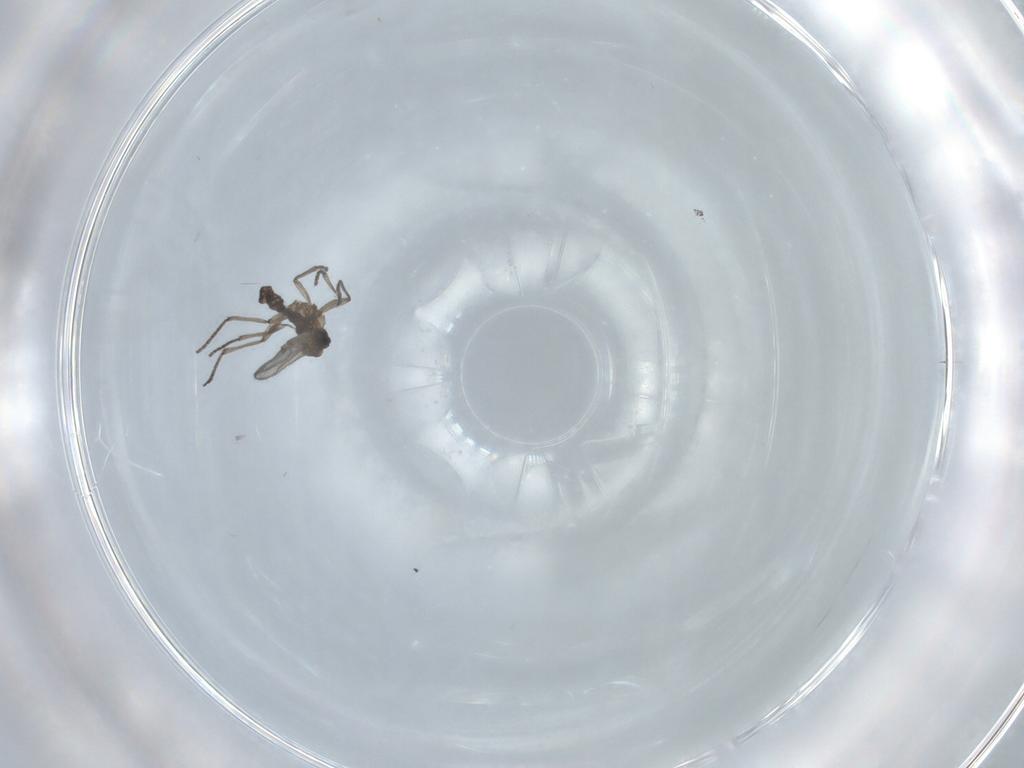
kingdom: Animalia
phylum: Arthropoda
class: Insecta
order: Diptera
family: Sciaridae
